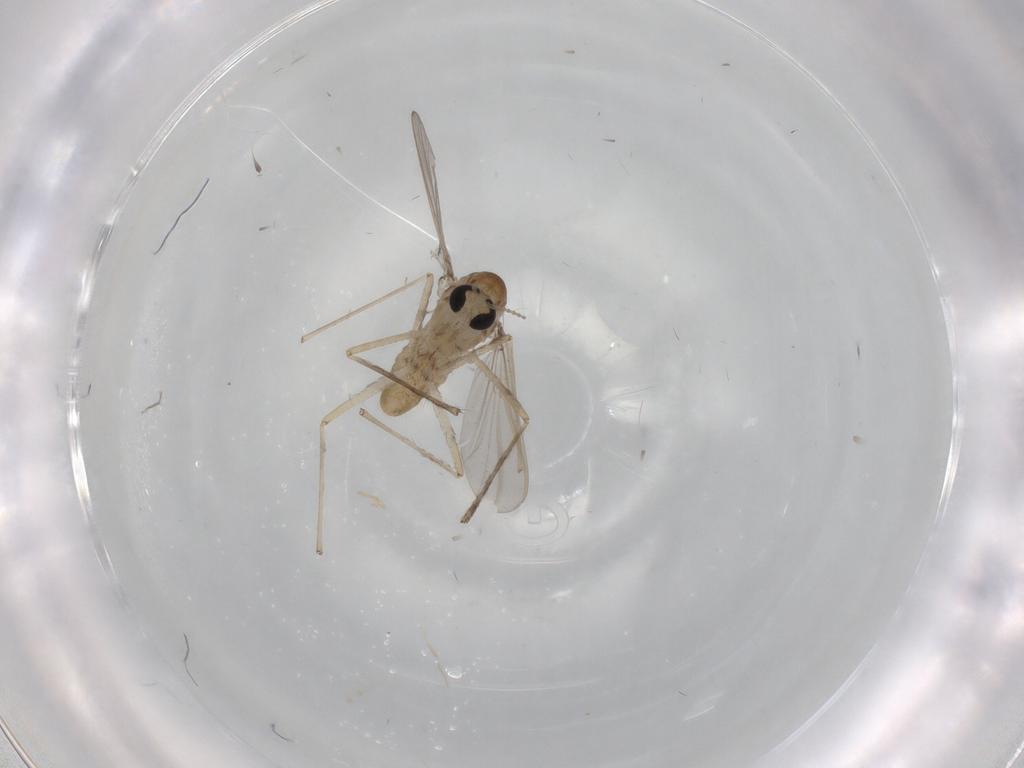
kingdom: Animalia
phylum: Arthropoda
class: Insecta
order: Diptera
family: Chironomidae
